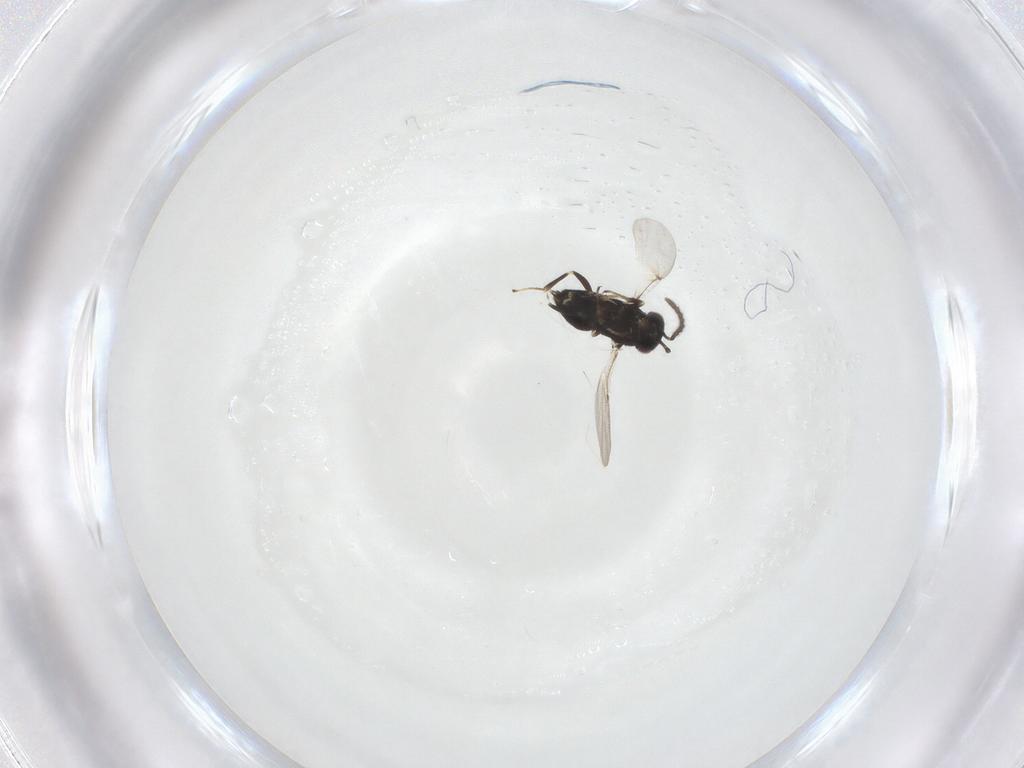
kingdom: Animalia
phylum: Arthropoda
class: Insecta
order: Hymenoptera
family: Encyrtidae
